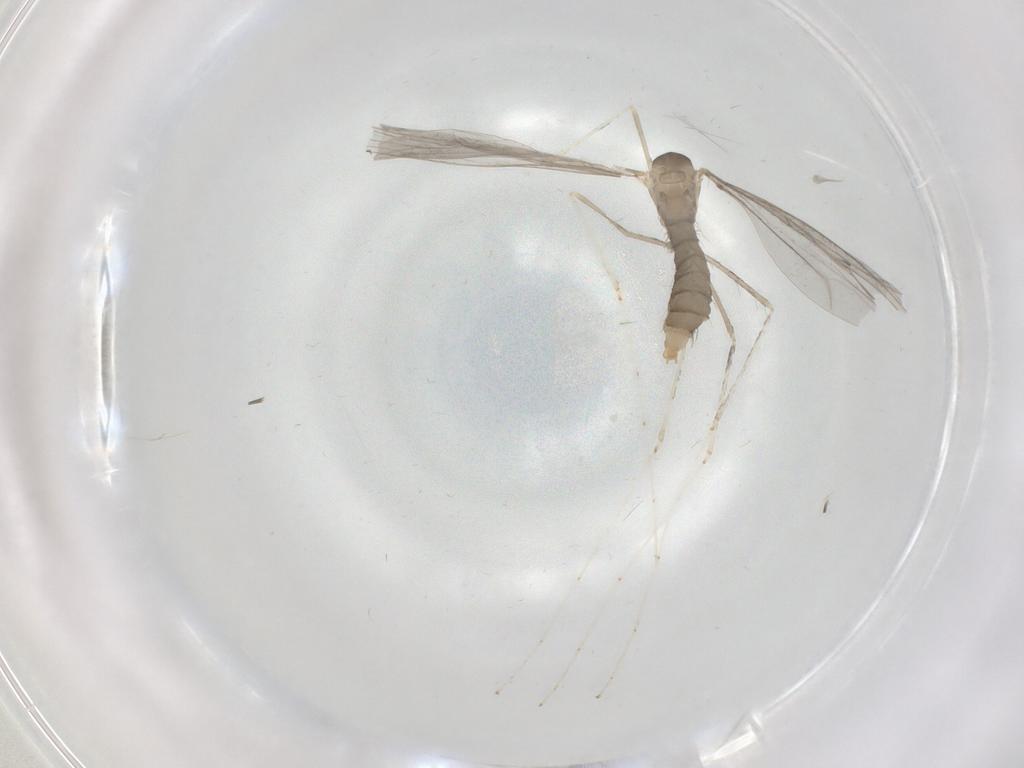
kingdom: Animalia
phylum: Arthropoda
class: Insecta
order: Diptera
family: Cecidomyiidae
